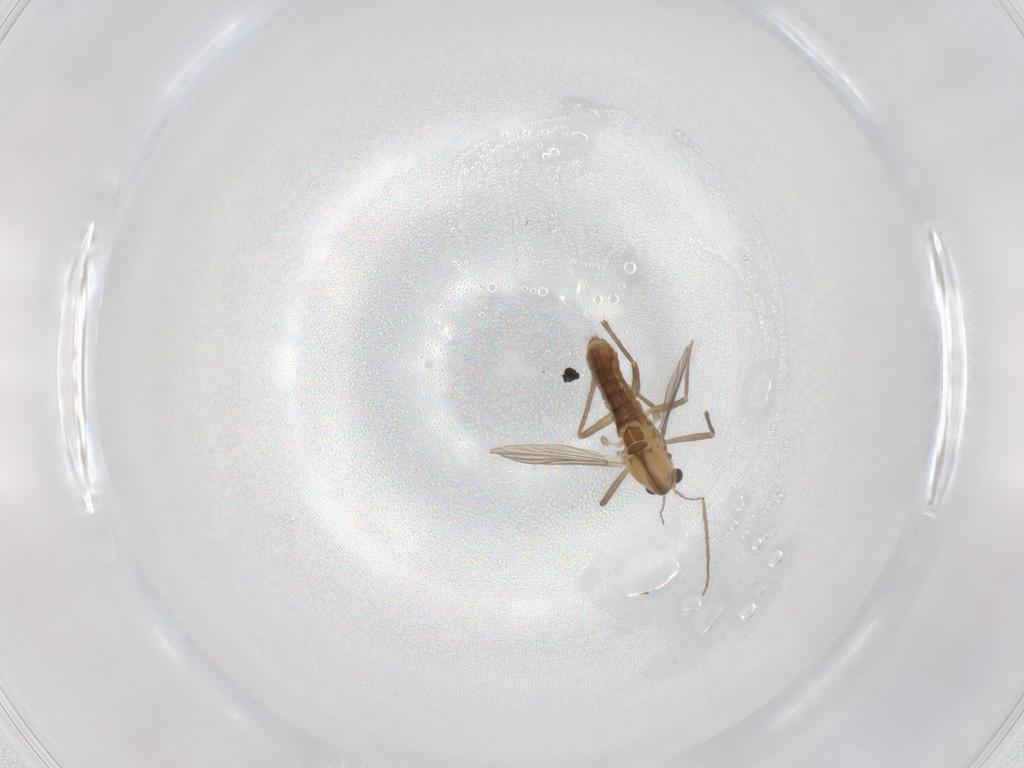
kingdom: Animalia
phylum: Arthropoda
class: Insecta
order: Diptera
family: Chironomidae
